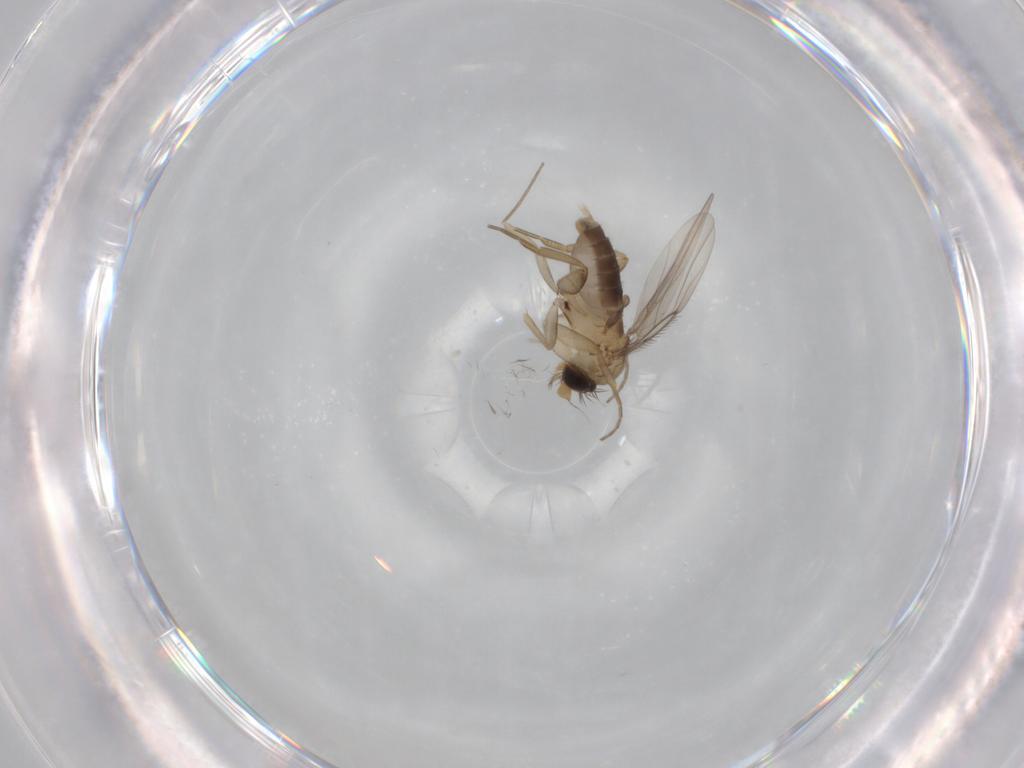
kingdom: Animalia
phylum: Arthropoda
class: Insecta
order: Diptera
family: Phoridae
